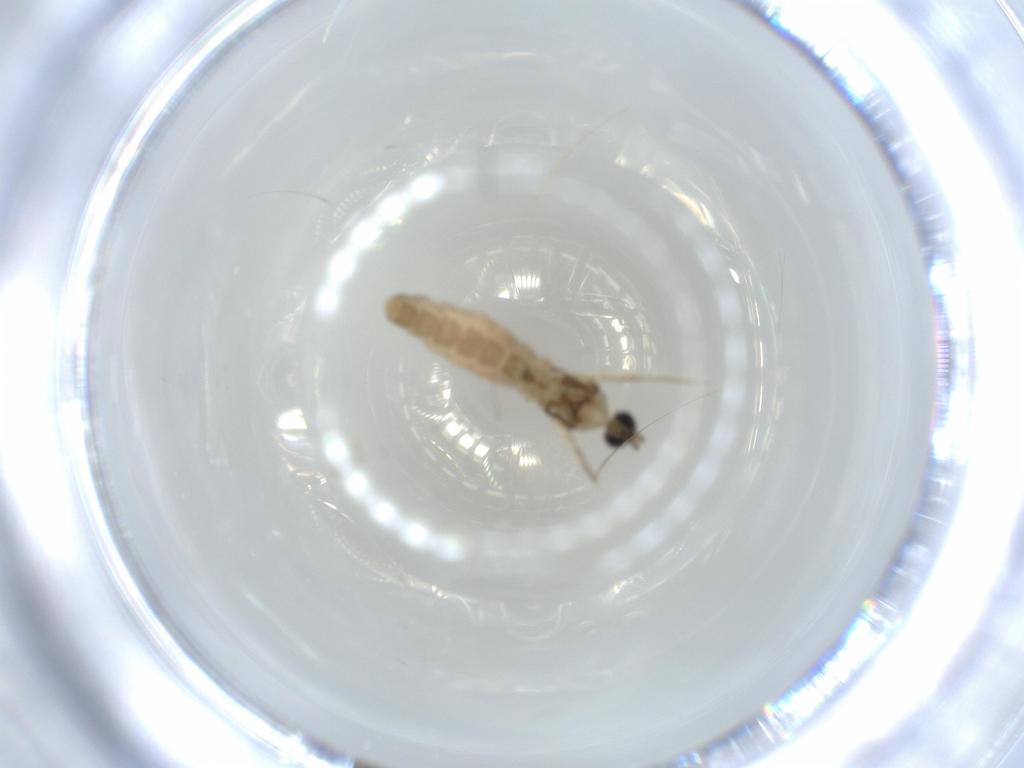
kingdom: Animalia
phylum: Arthropoda
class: Insecta
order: Diptera
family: Cecidomyiidae
